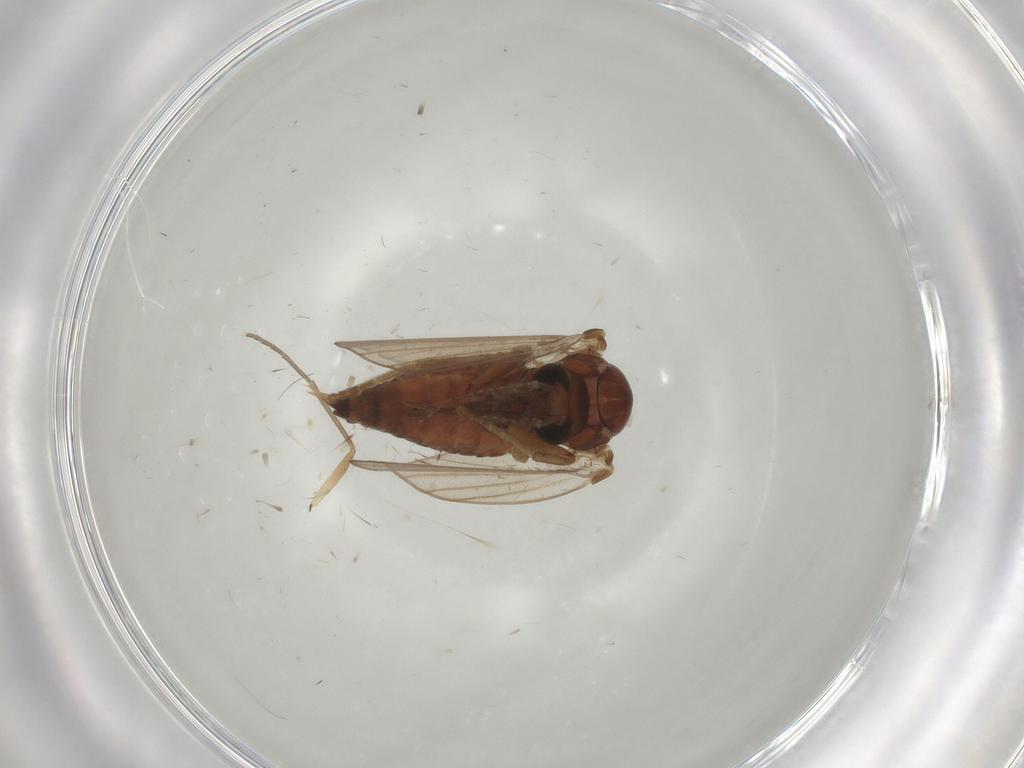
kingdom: Animalia
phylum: Arthropoda
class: Insecta
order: Diptera
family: Psychodidae
